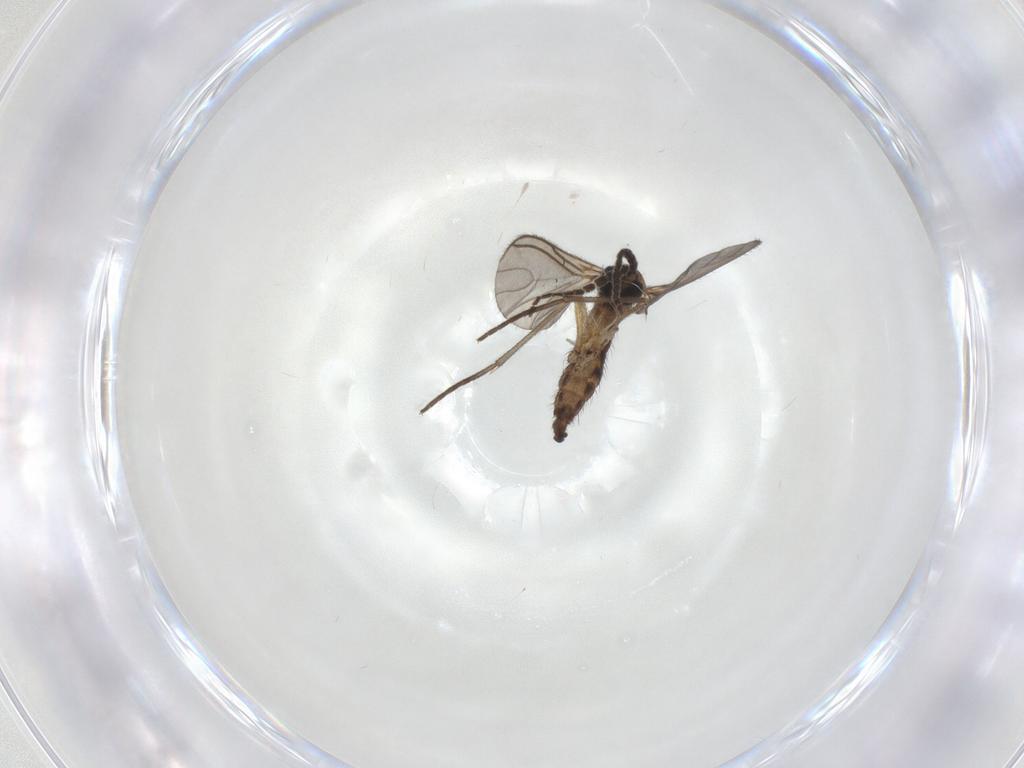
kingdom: Animalia
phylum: Arthropoda
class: Insecta
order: Diptera
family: Sciaridae
